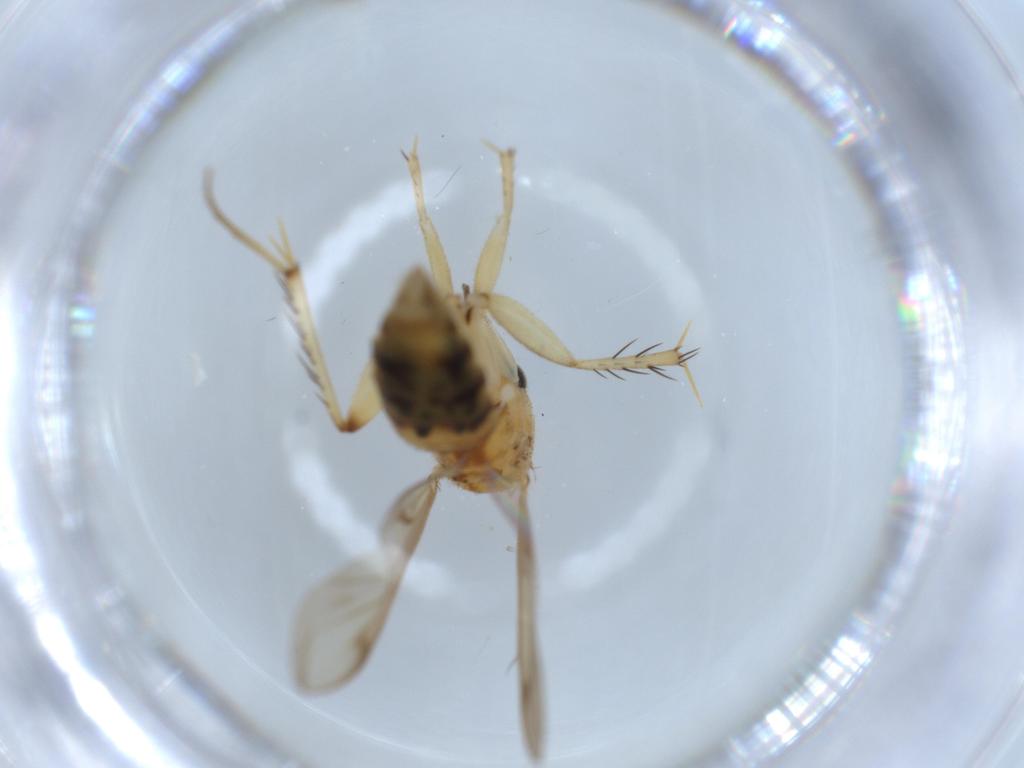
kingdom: Animalia
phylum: Arthropoda
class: Insecta
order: Diptera
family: Mycetophilidae
